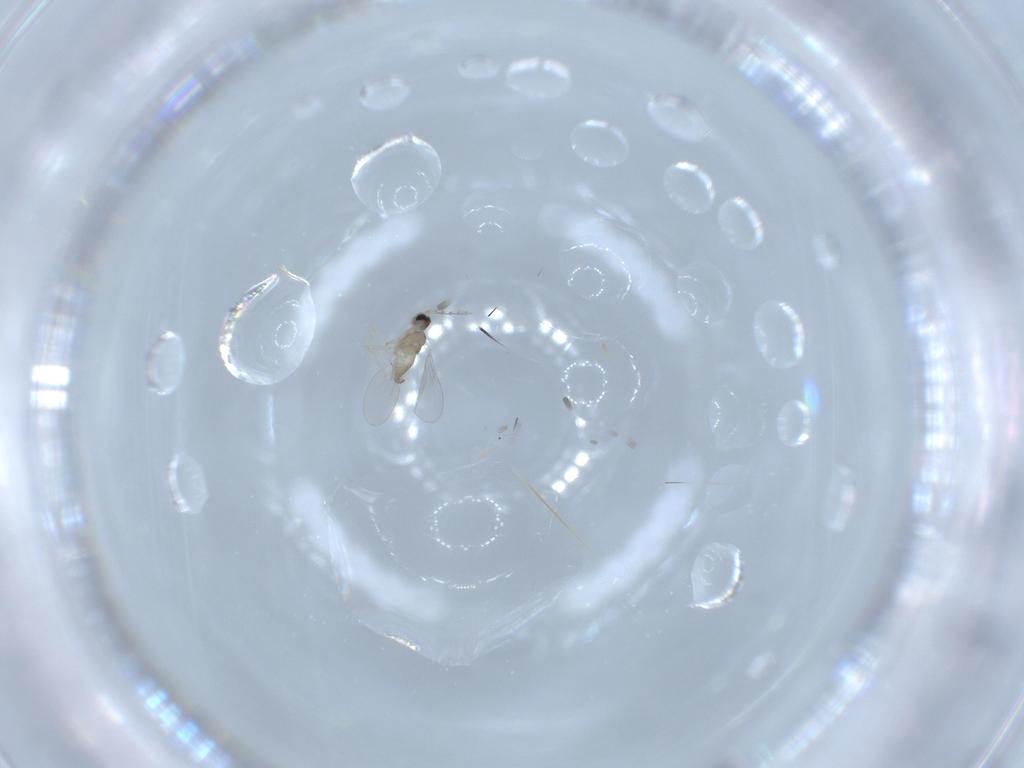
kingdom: Animalia
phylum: Arthropoda
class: Insecta
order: Diptera
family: Cecidomyiidae
